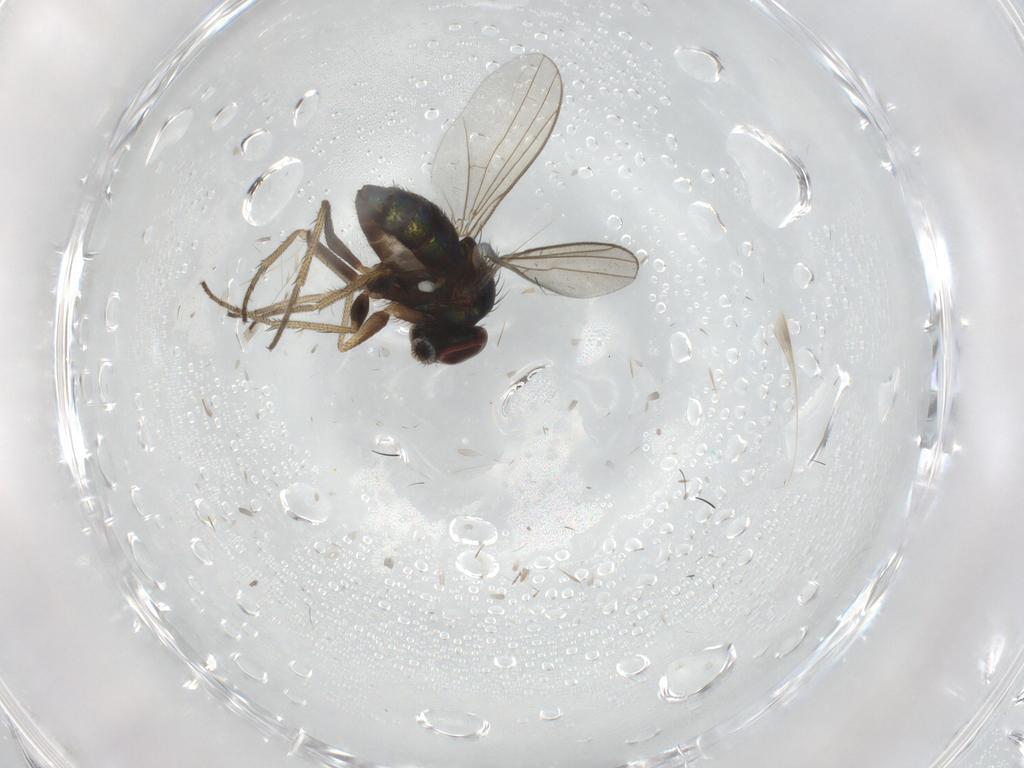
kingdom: Animalia
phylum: Arthropoda
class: Insecta
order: Diptera
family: Ceratopogonidae
